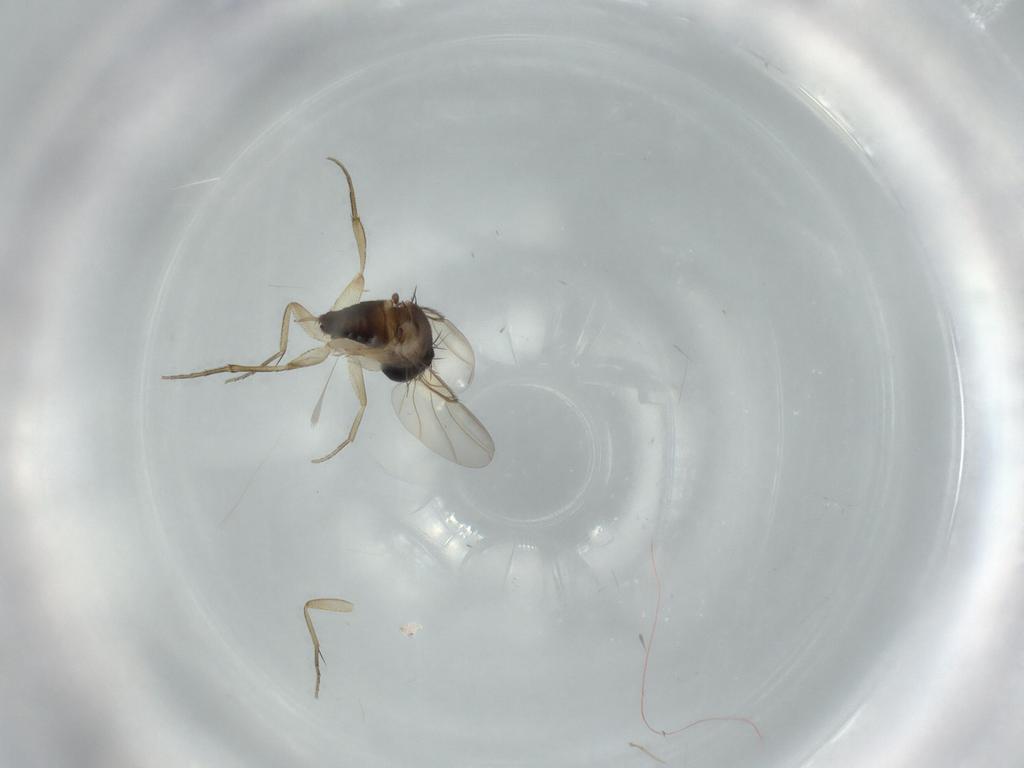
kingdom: Animalia
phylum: Arthropoda
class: Insecta
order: Diptera
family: Phoridae
